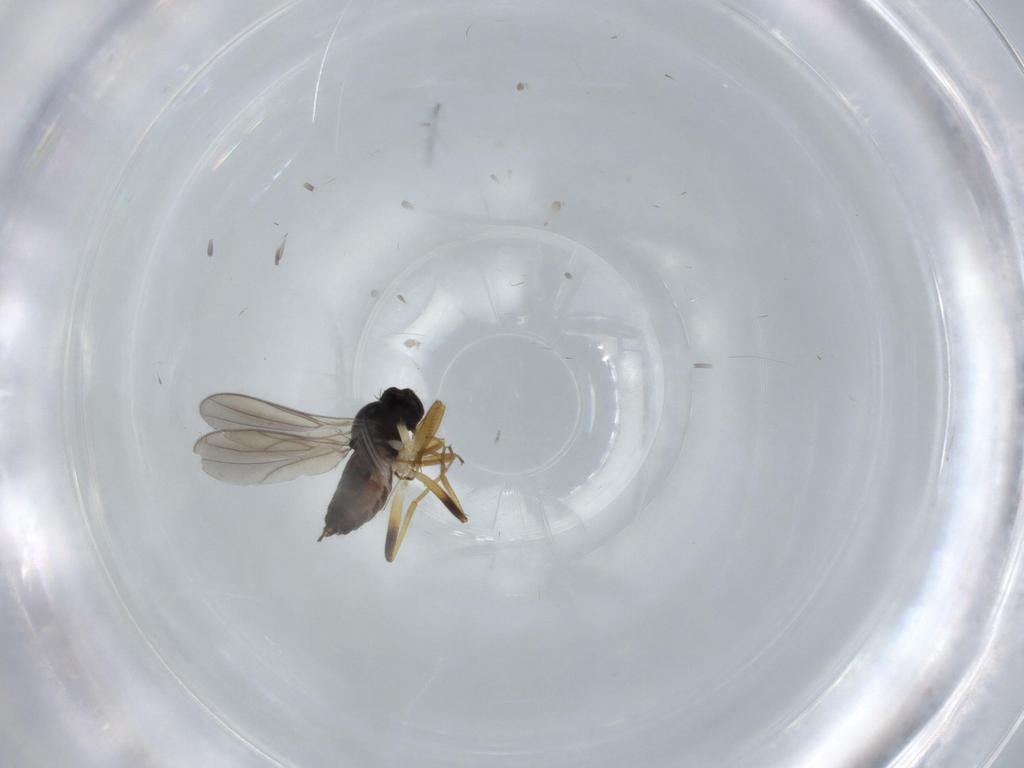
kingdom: Animalia
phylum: Arthropoda
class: Insecta
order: Diptera
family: Hybotidae
